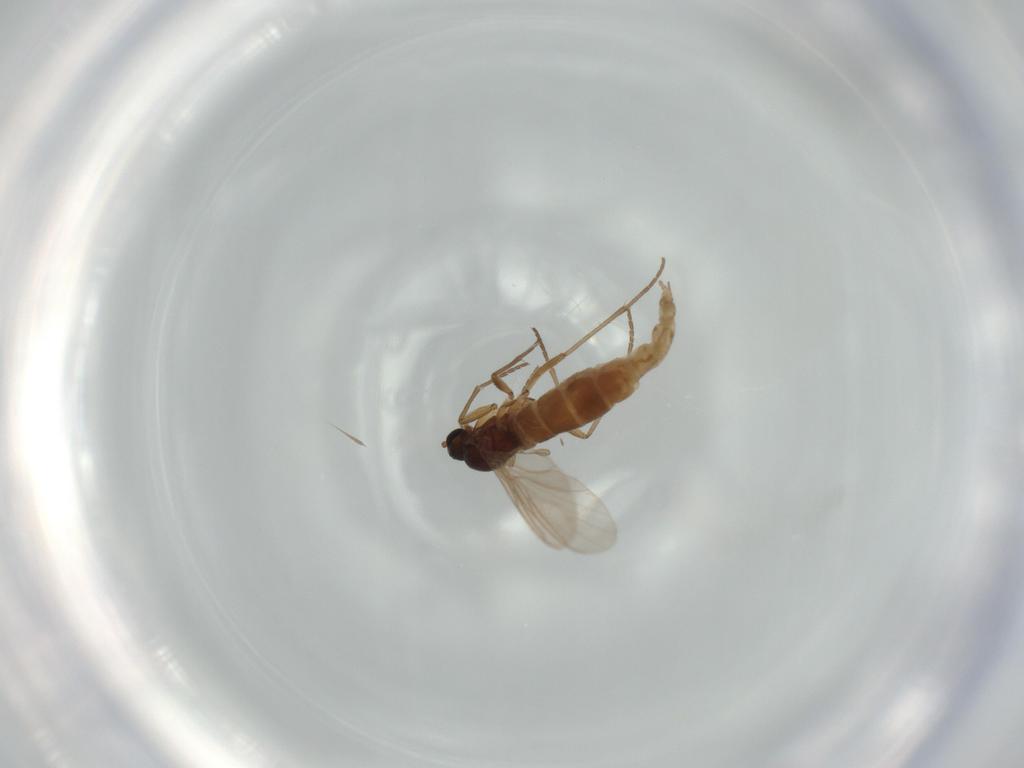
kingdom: Animalia
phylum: Arthropoda
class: Insecta
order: Diptera
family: Sciaridae
